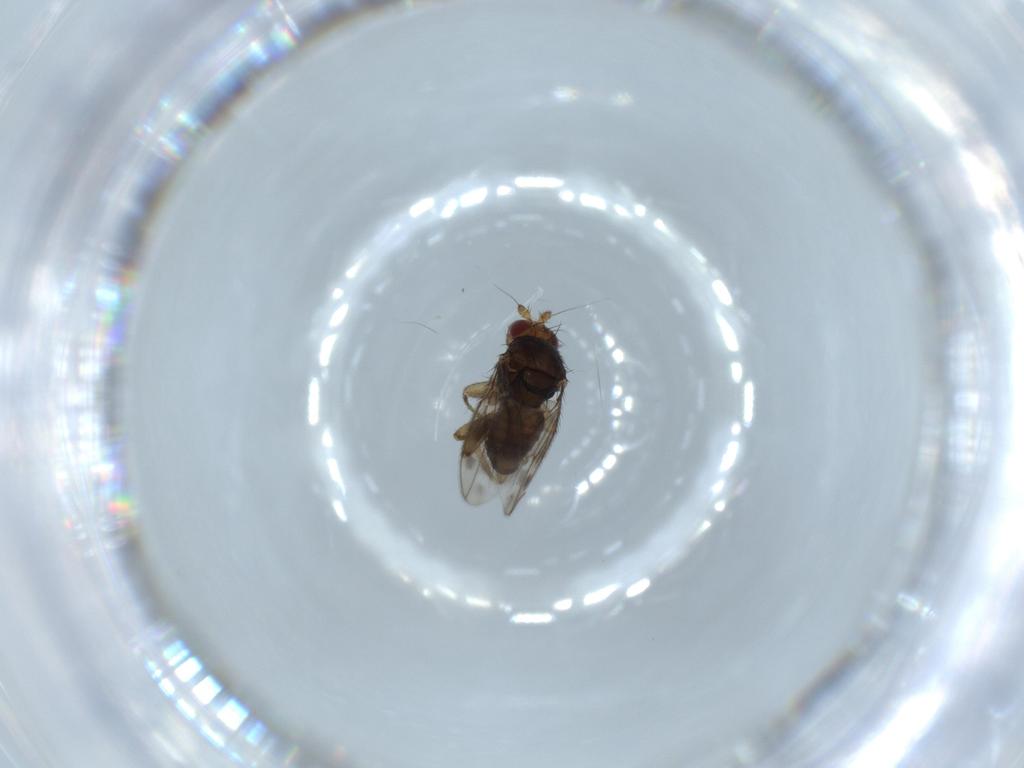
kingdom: Animalia
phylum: Arthropoda
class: Insecta
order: Diptera
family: Sphaeroceridae
